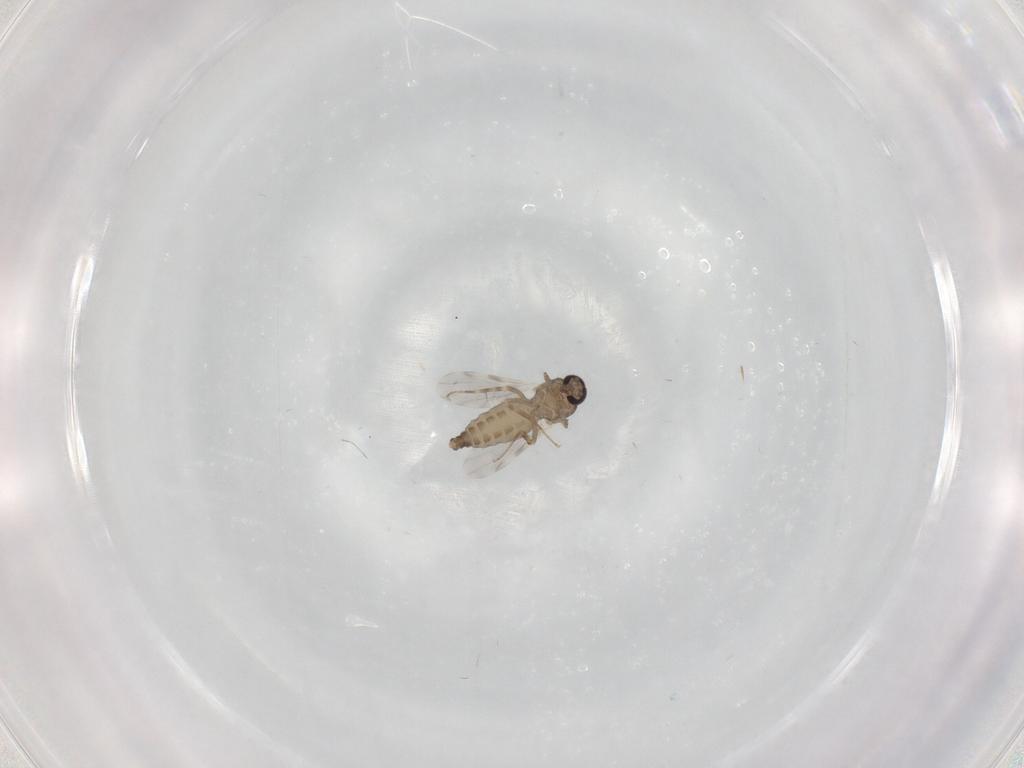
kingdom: Animalia
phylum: Arthropoda
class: Insecta
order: Diptera
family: Ceratopogonidae
